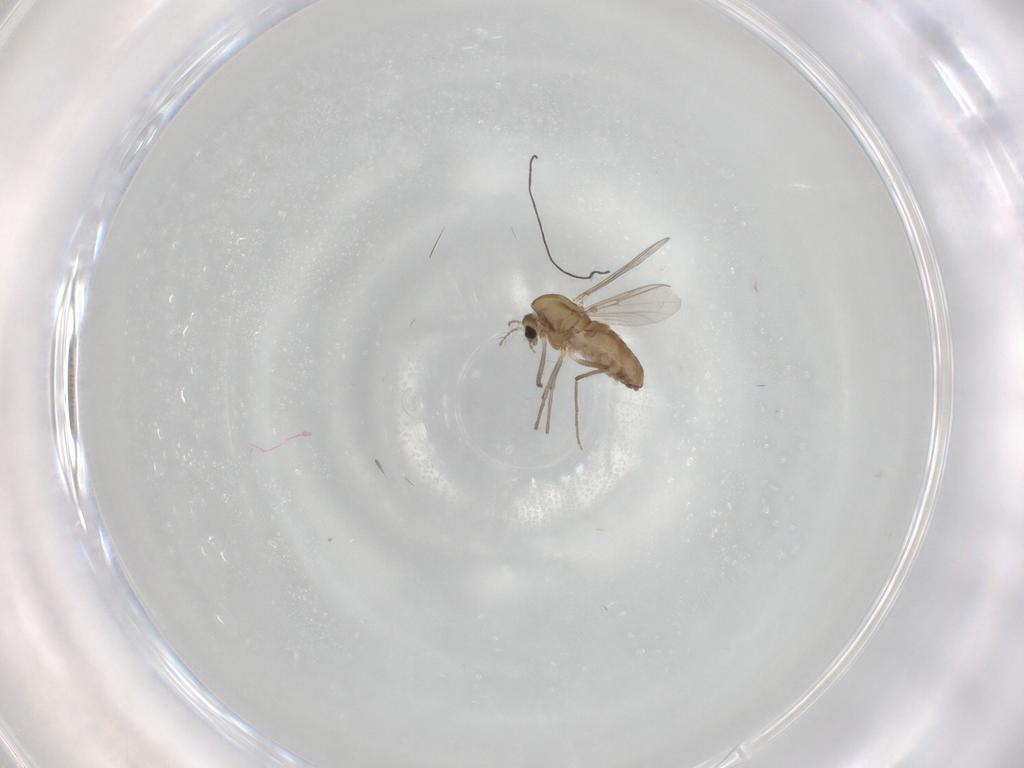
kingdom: Animalia
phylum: Arthropoda
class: Insecta
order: Diptera
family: Chironomidae
